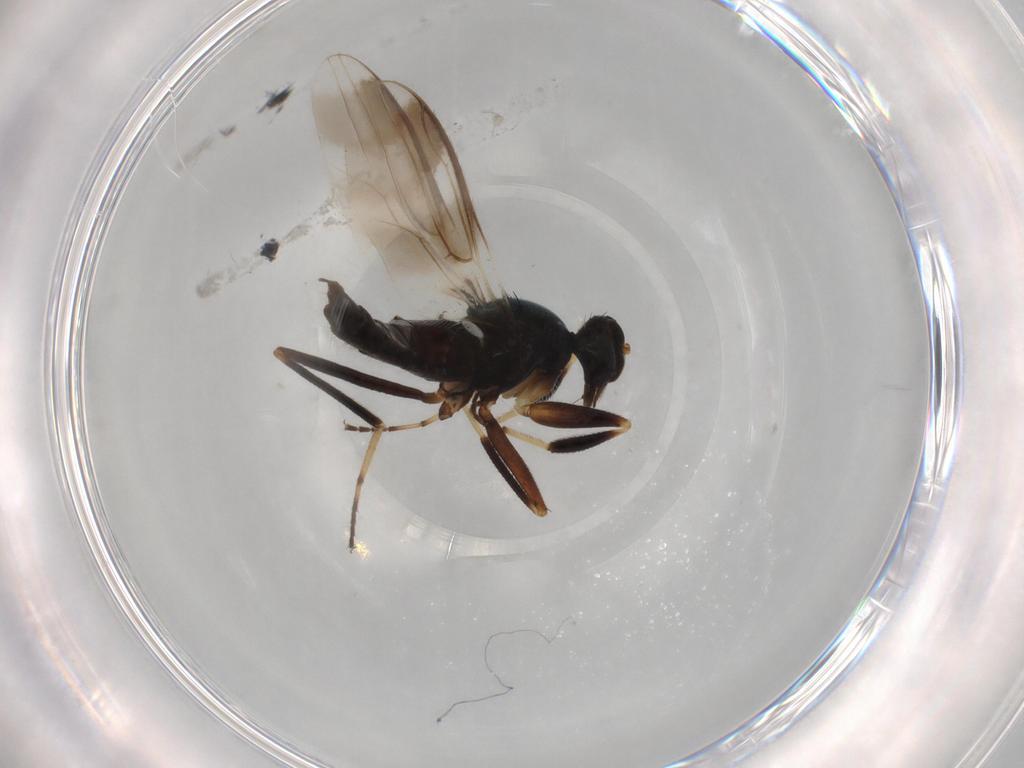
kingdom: Animalia
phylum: Arthropoda
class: Insecta
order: Diptera
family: Hybotidae
